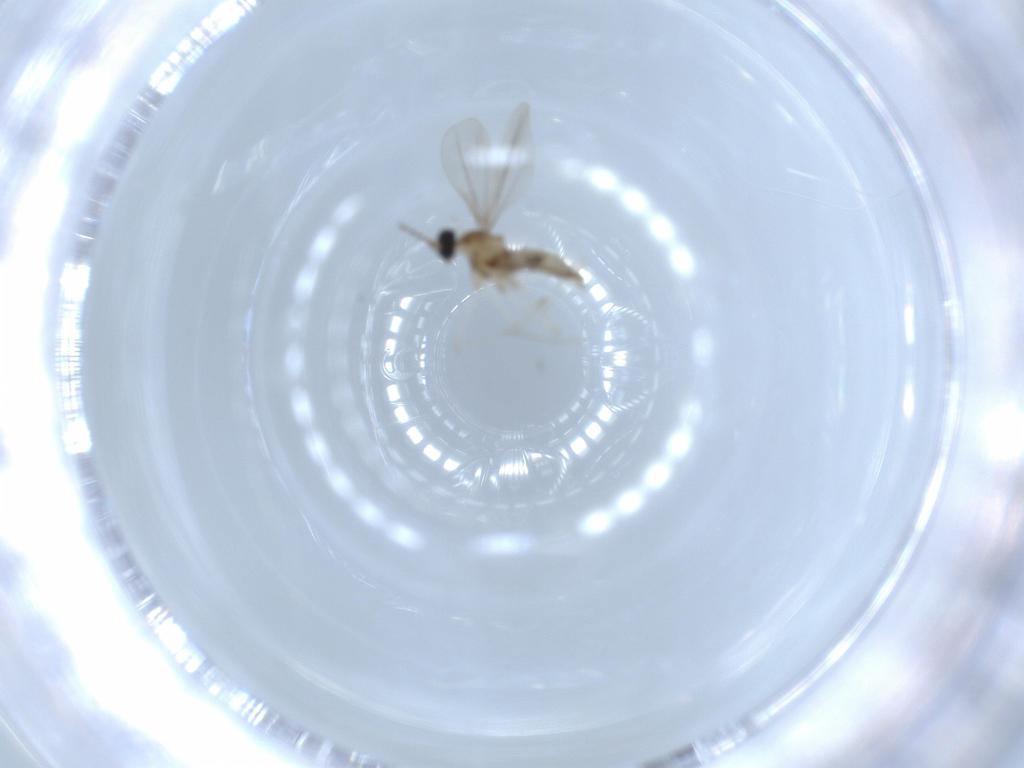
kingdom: Animalia
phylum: Arthropoda
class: Insecta
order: Diptera
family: Cecidomyiidae
